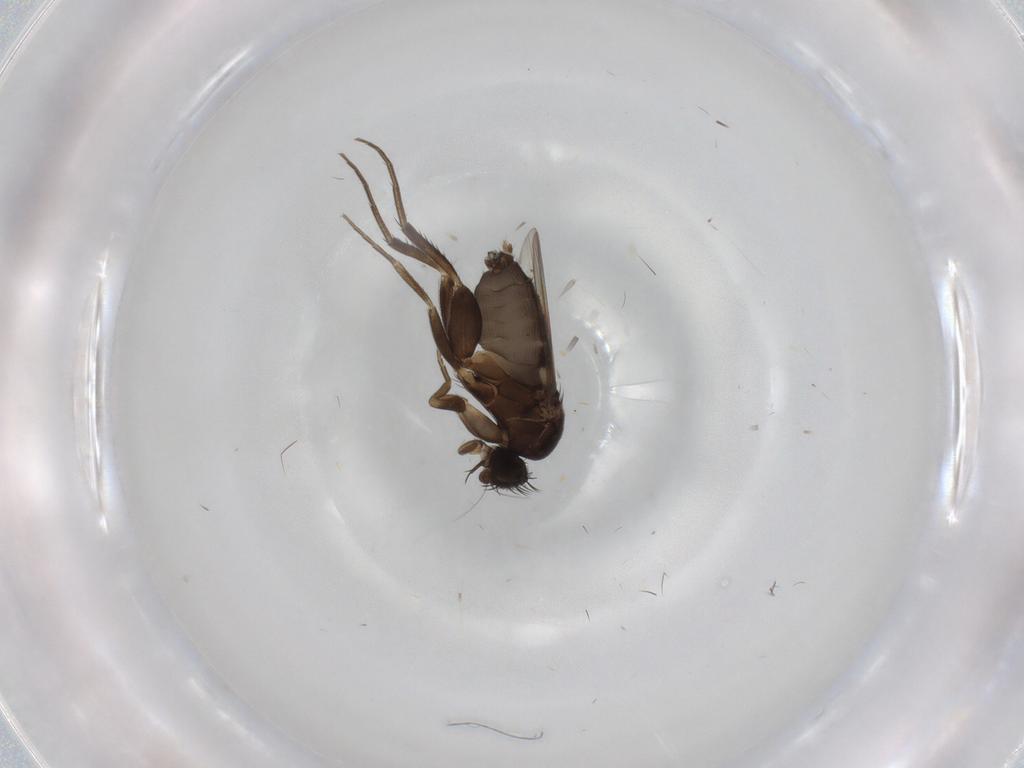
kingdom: Animalia
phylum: Arthropoda
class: Insecta
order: Diptera
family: Phoridae
